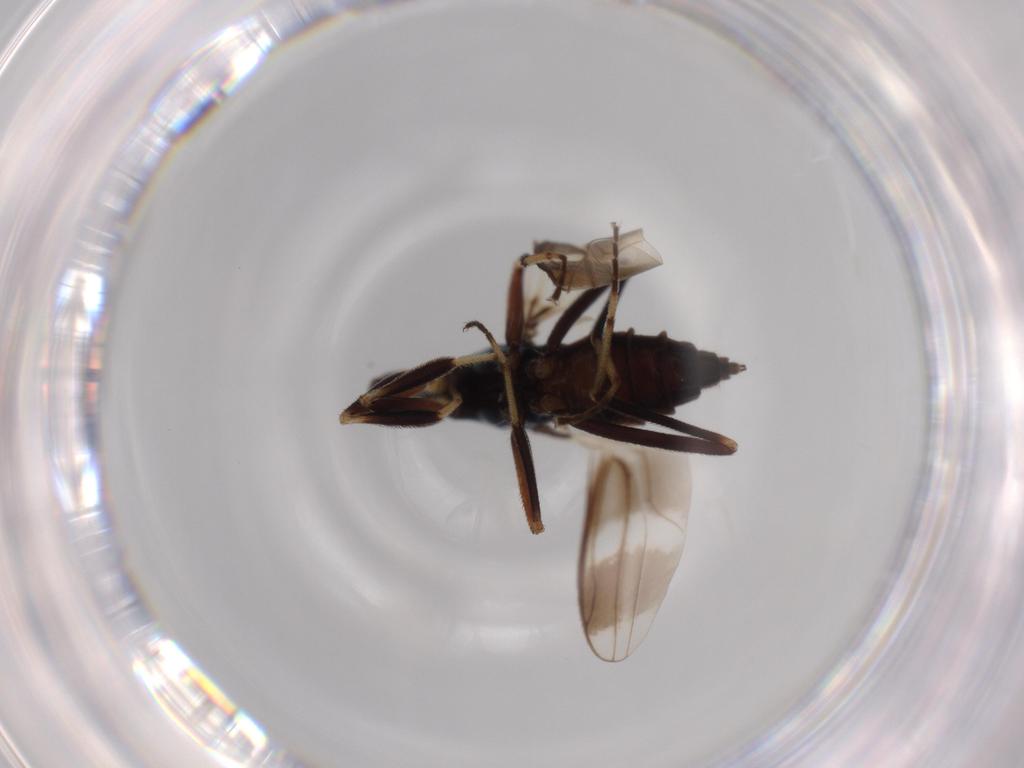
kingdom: Animalia
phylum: Arthropoda
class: Insecta
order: Diptera
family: Hybotidae
